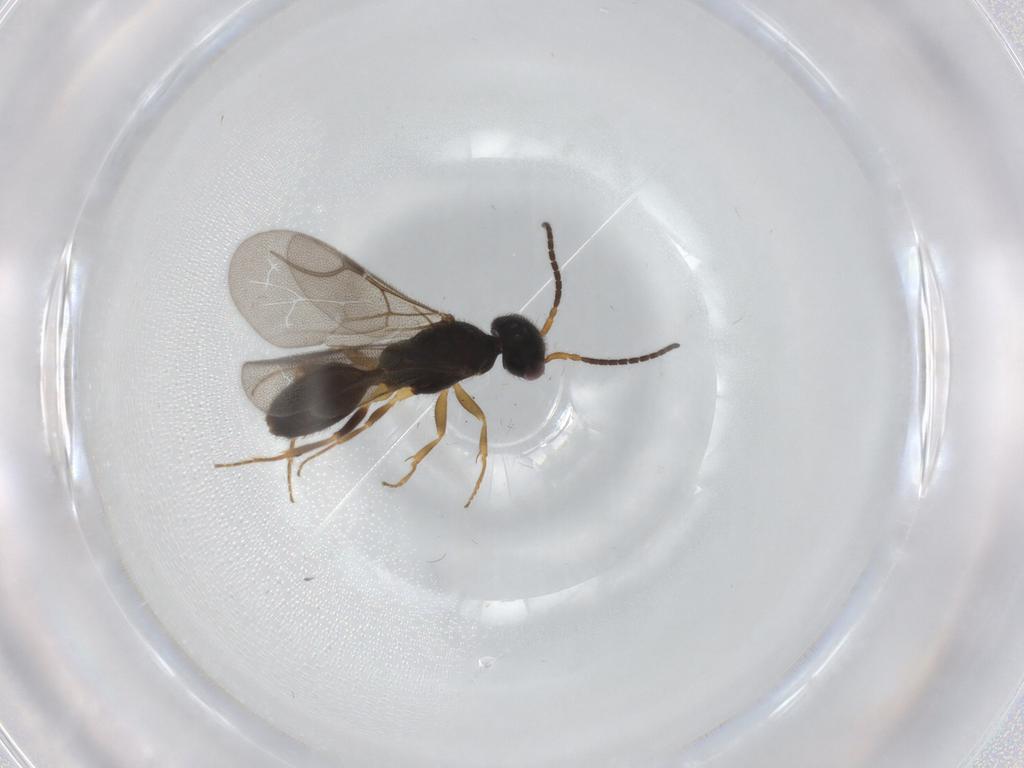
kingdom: Animalia
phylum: Arthropoda
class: Insecta
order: Hymenoptera
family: Bethylidae
